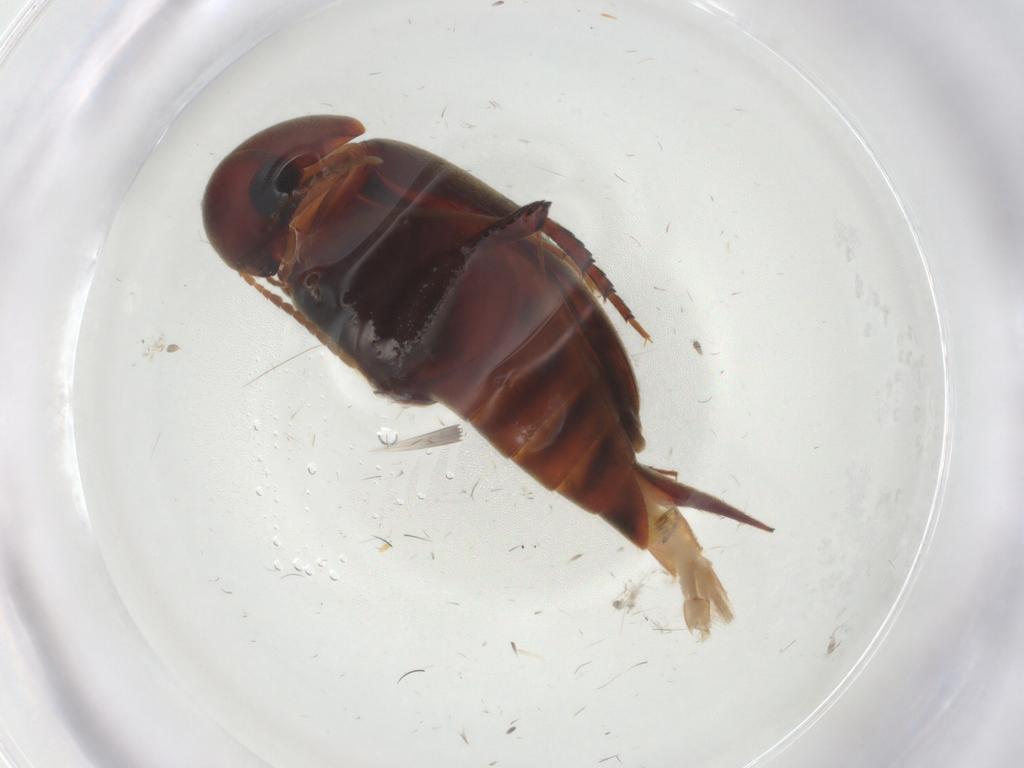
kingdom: Animalia
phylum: Arthropoda
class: Insecta
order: Coleoptera
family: Mordellidae
